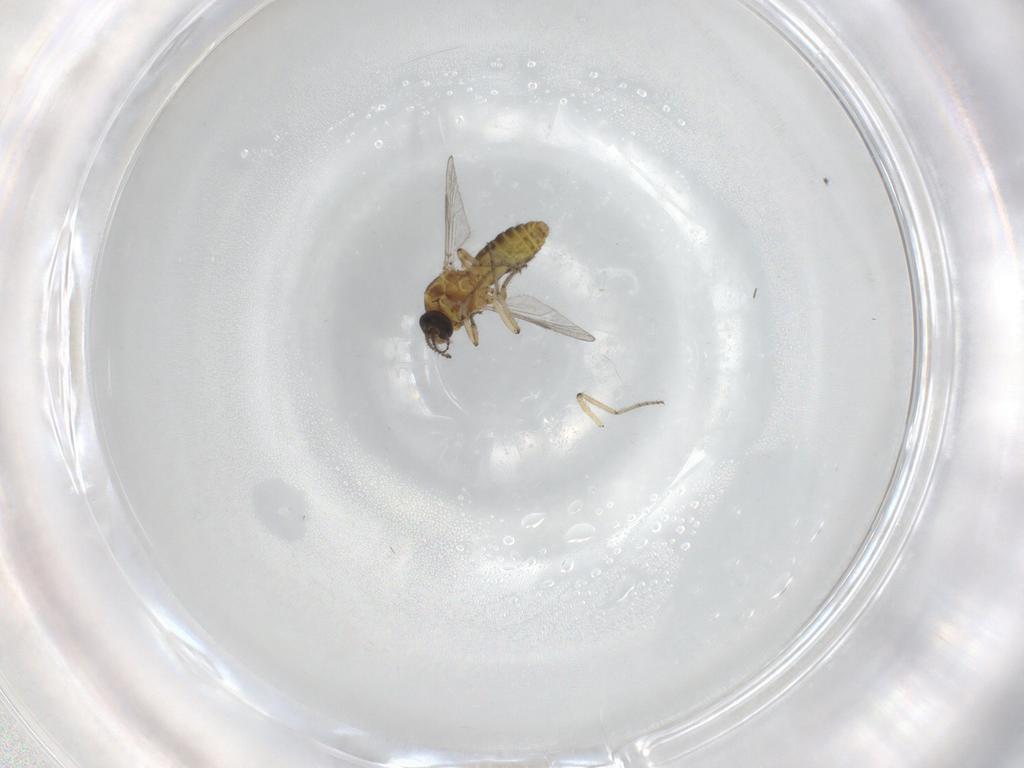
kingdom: Animalia
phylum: Arthropoda
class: Insecta
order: Diptera
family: Ceratopogonidae
